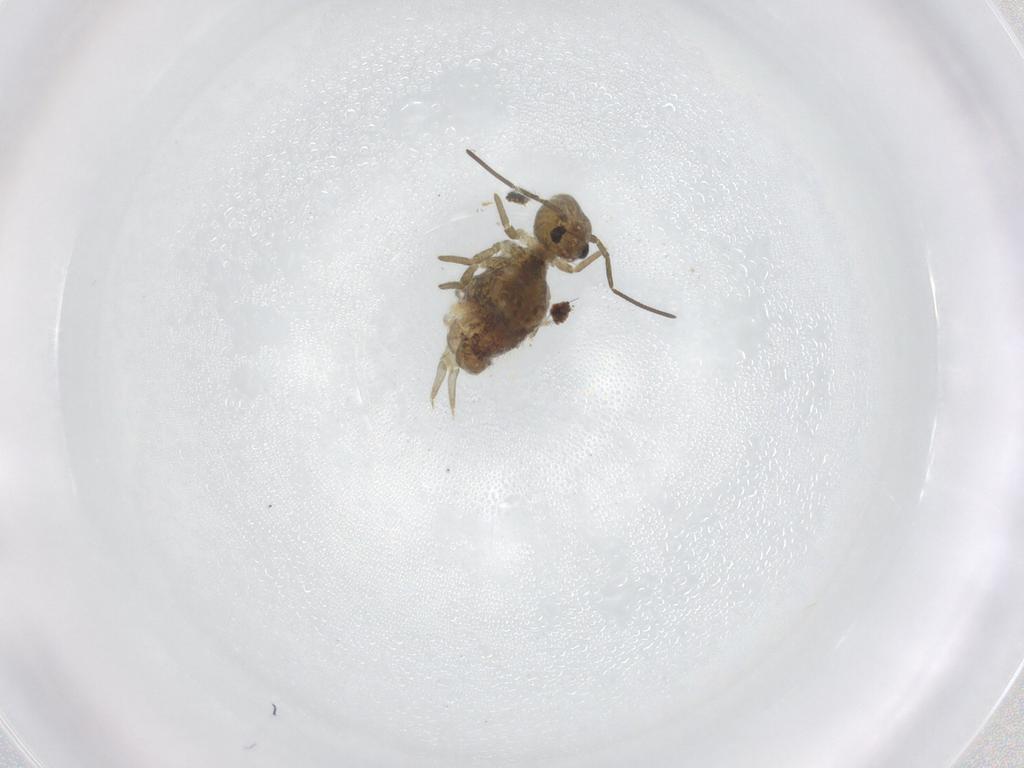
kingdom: Animalia
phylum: Arthropoda
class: Collembola
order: Symphypleona
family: Sminthuridae
